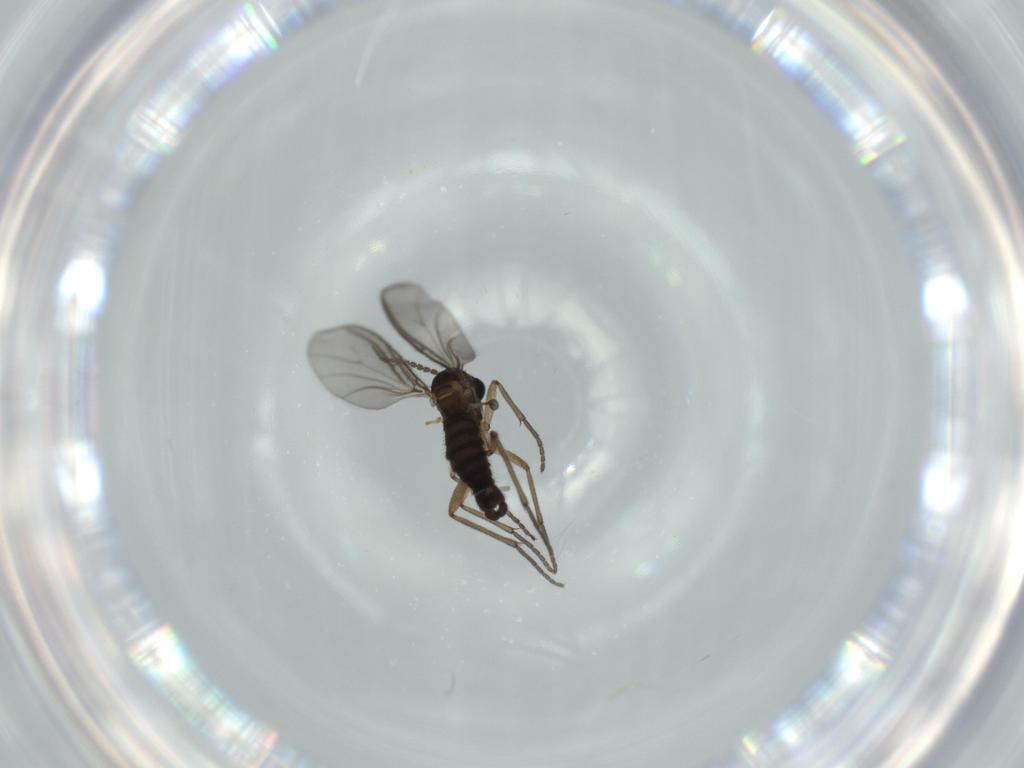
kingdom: Animalia
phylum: Arthropoda
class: Insecta
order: Diptera
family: Sciaridae
